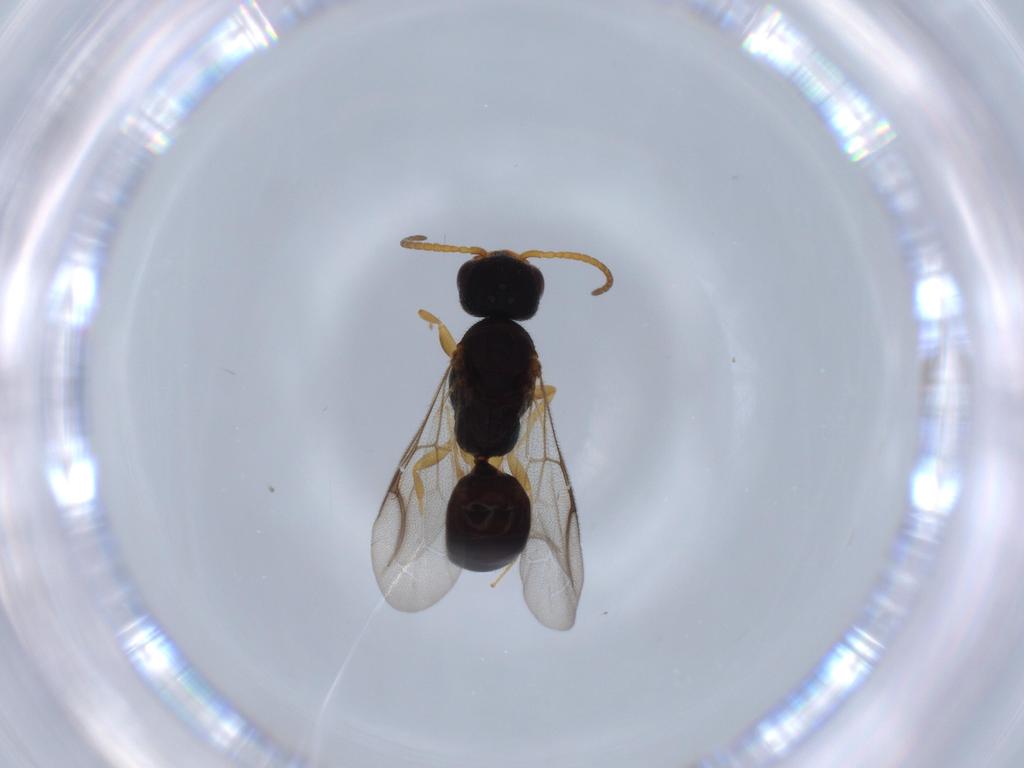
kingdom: Animalia
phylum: Arthropoda
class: Insecta
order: Hymenoptera
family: Bethylidae
